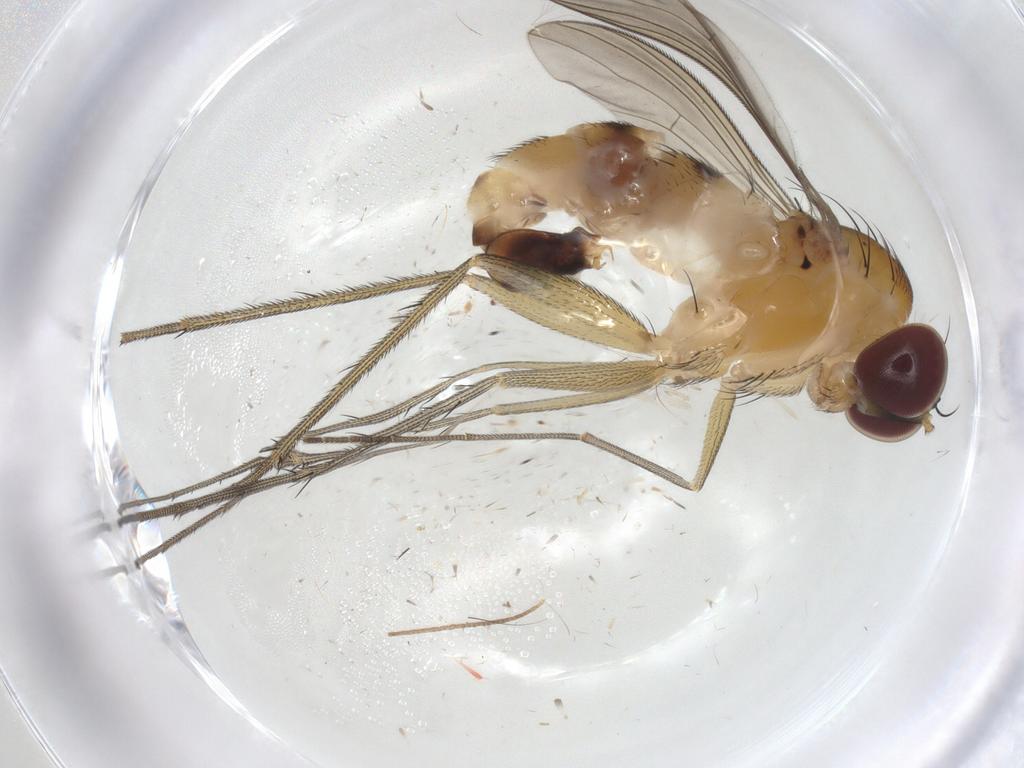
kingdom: Animalia
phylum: Arthropoda
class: Insecta
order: Diptera
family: Dolichopodidae
